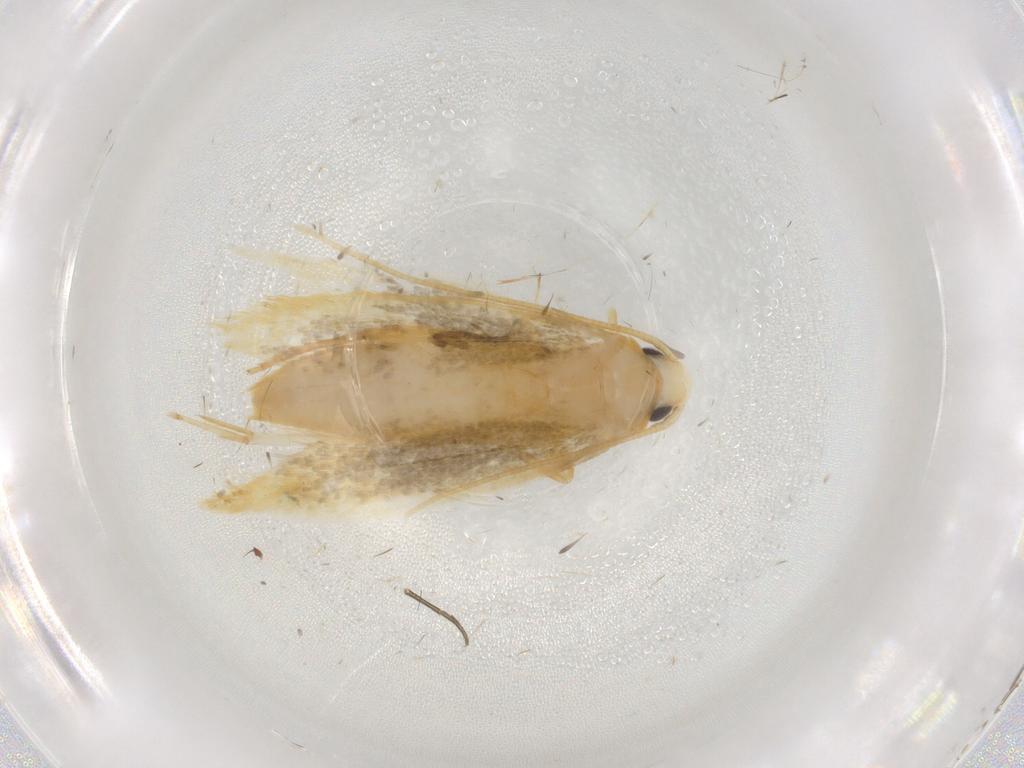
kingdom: Animalia
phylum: Arthropoda
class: Insecta
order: Lepidoptera
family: Tineidae
